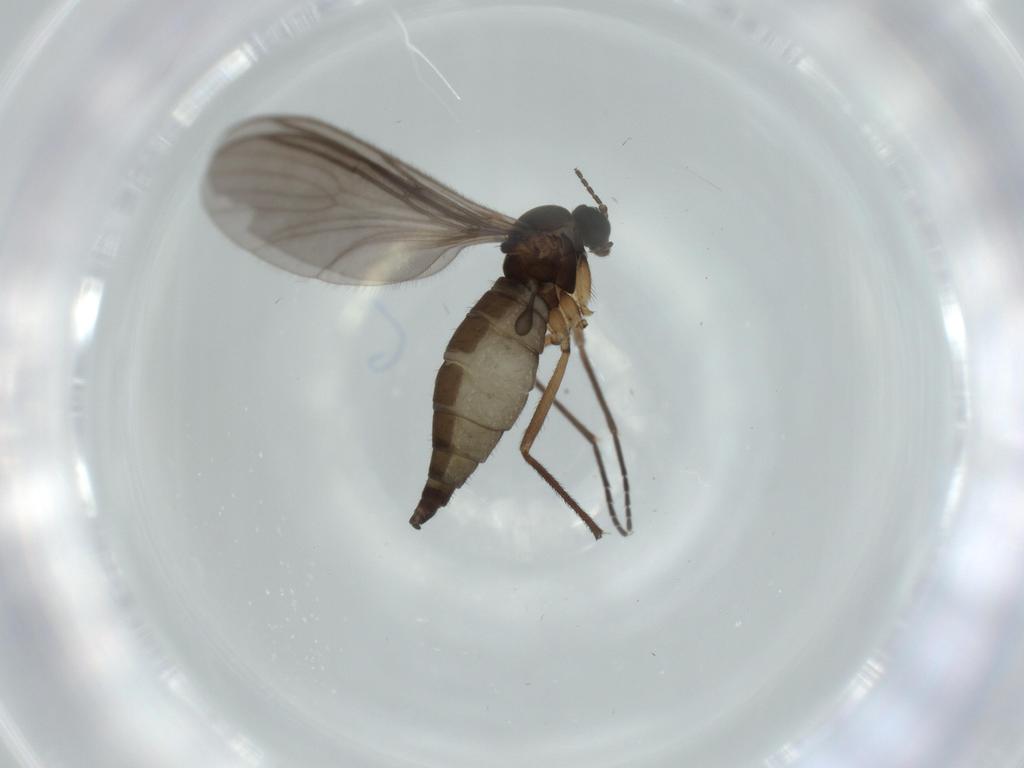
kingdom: Animalia
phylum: Arthropoda
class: Insecta
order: Diptera
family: Sciaridae
